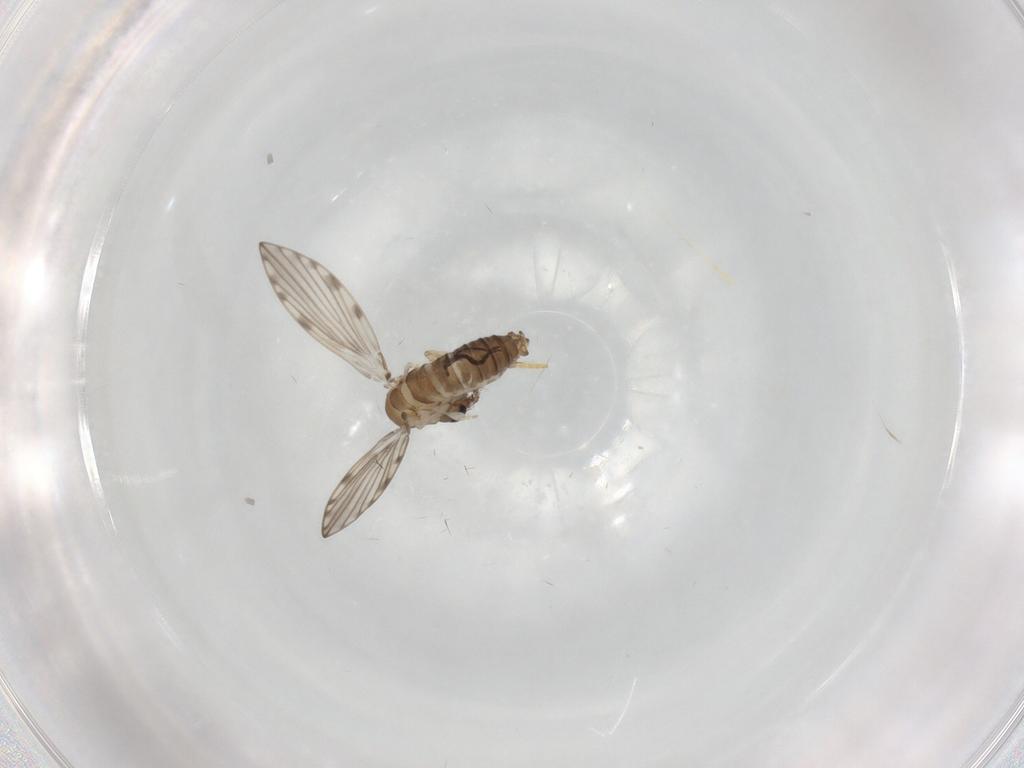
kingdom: Animalia
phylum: Arthropoda
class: Insecta
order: Diptera
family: Psychodidae
